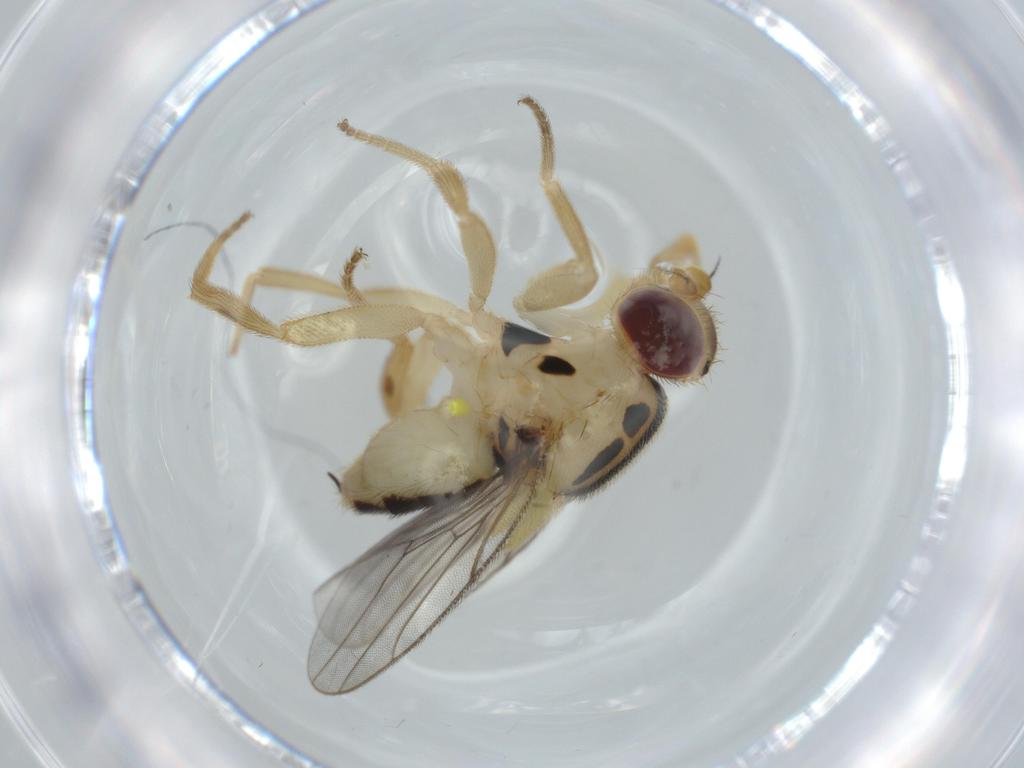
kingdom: Animalia
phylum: Arthropoda
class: Insecta
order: Diptera
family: Chloropidae
